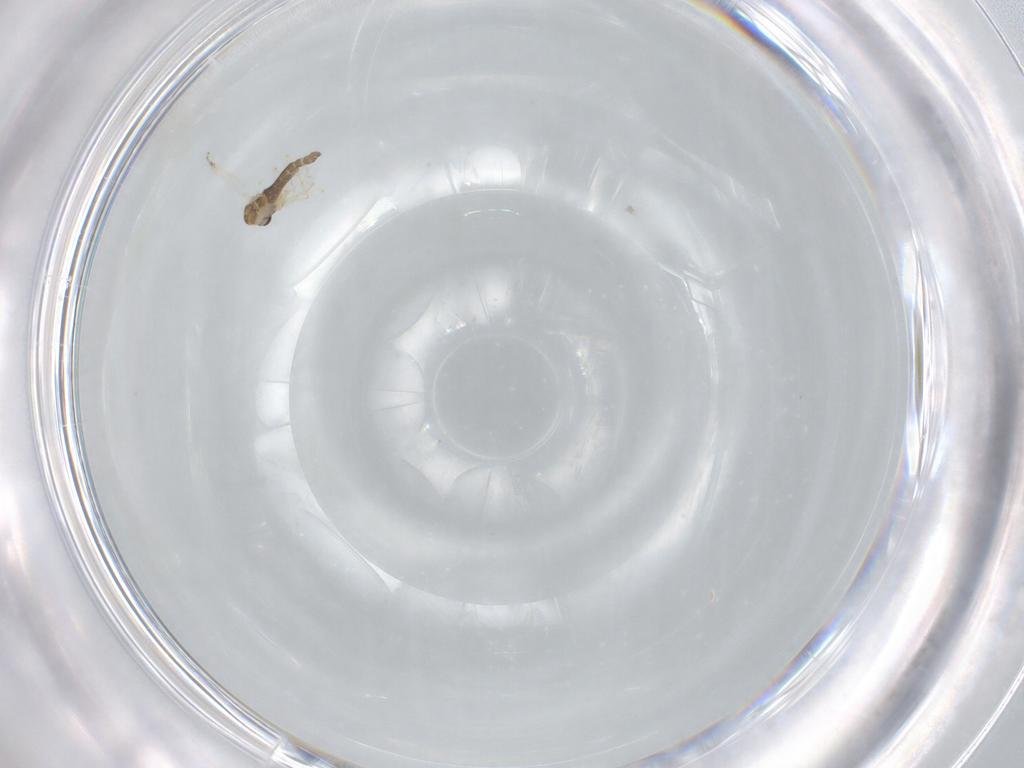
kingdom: Animalia
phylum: Arthropoda
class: Insecta
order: Diptera
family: Chironomidae
